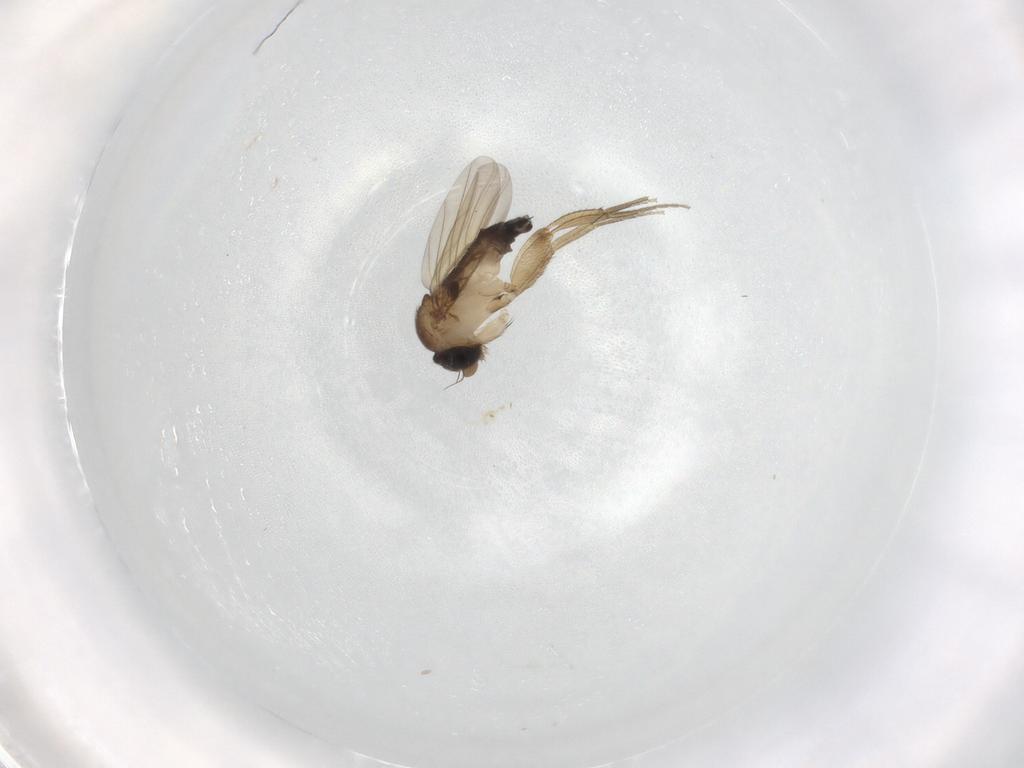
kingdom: Animalia
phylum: Arthropoda
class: Insecta
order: Diptera
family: Phoridae
